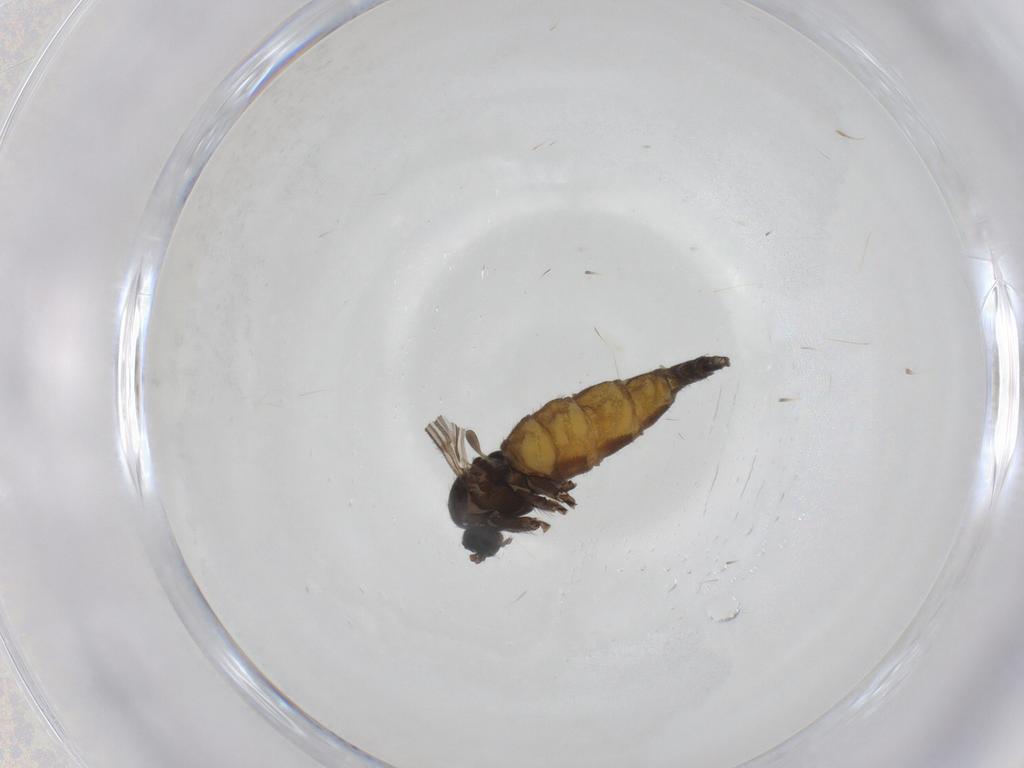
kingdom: Animalia
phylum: Arthropoda
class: Insecta
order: Diptera
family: Sciaridae
